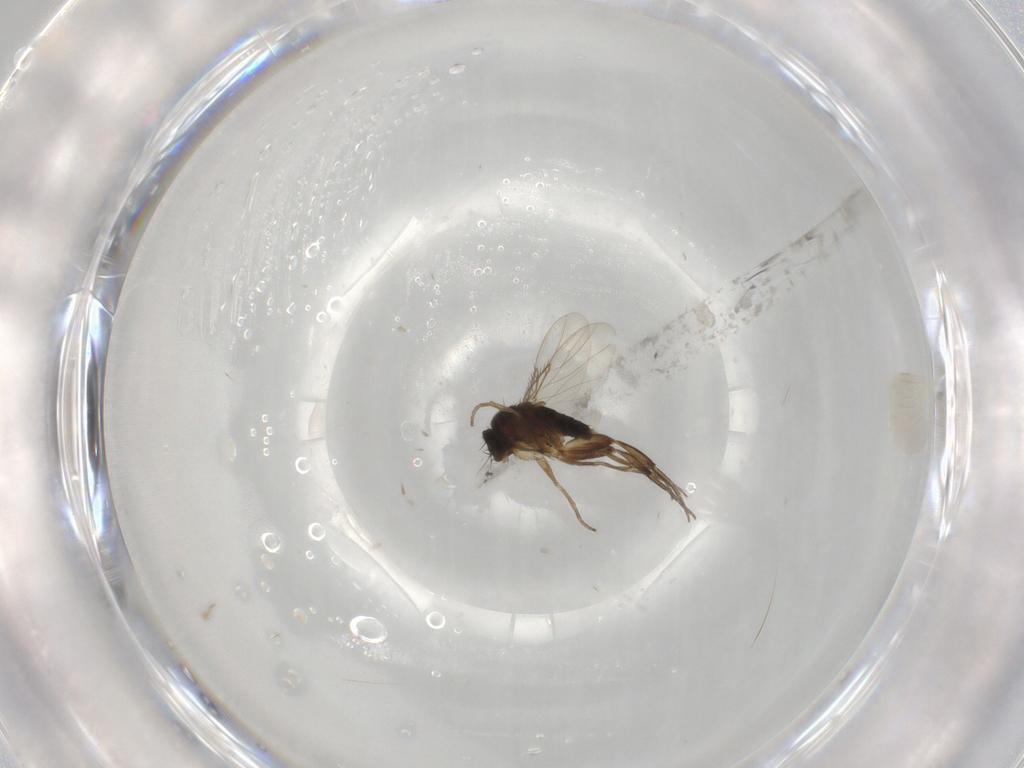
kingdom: Animalia
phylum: Arthropoda
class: Insecta
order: Diptera
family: Phoridae
